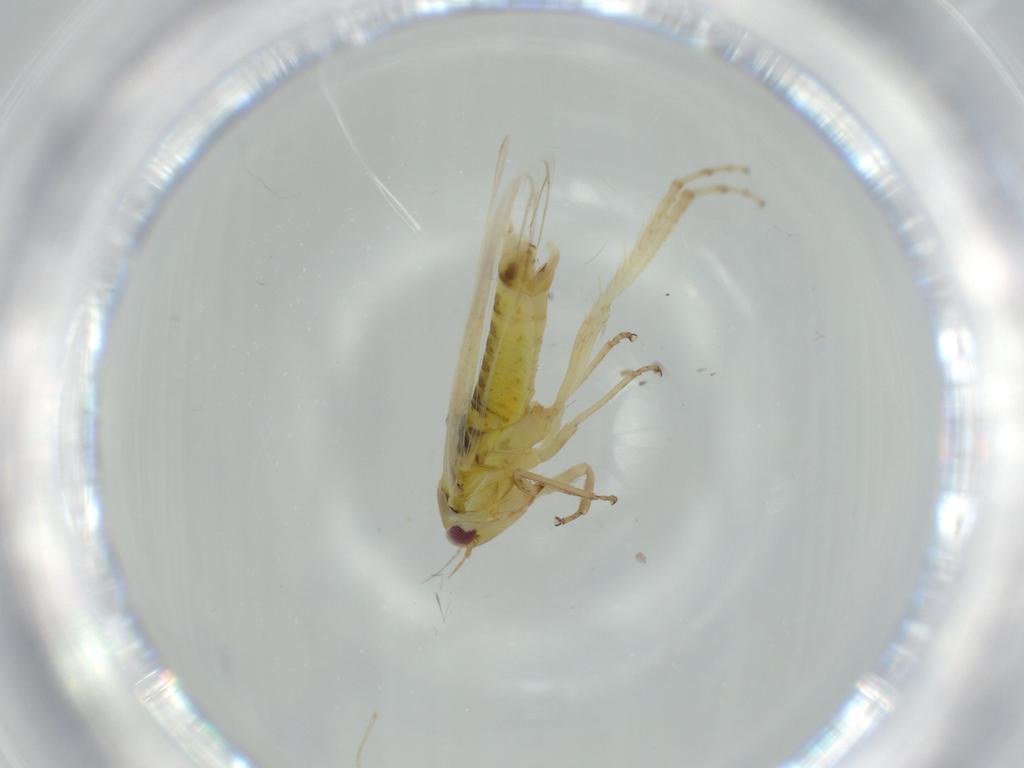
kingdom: Animalia
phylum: Arthropoda
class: Insecta
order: Hemiptera
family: Cicadellidae
